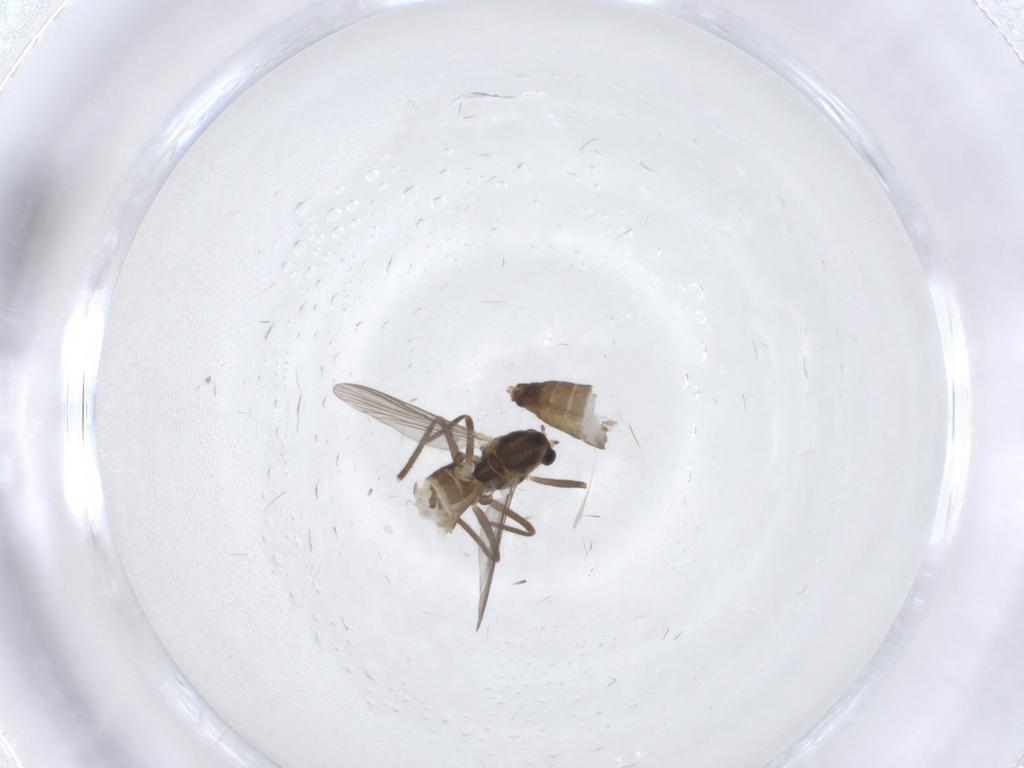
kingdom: Animalia
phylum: Arthropoda
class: Insecta
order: Diptera
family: Chironomidae
